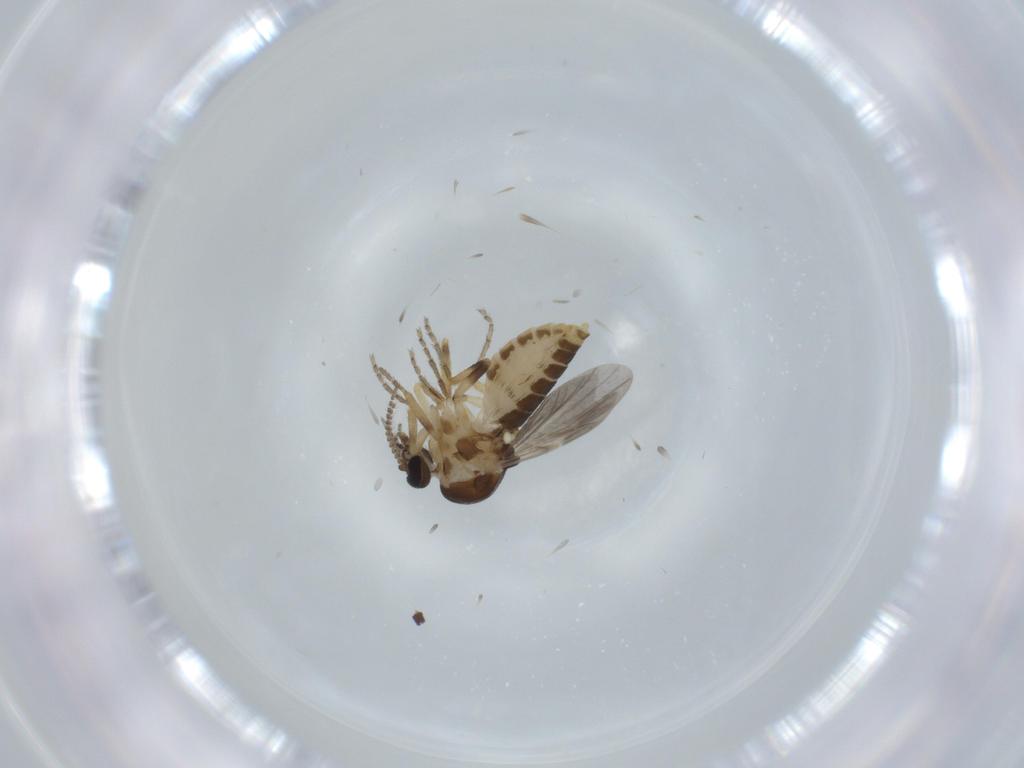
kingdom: Animalia
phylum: Arthropoda
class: Insecta
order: Diptera
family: Ceratopogonidae
